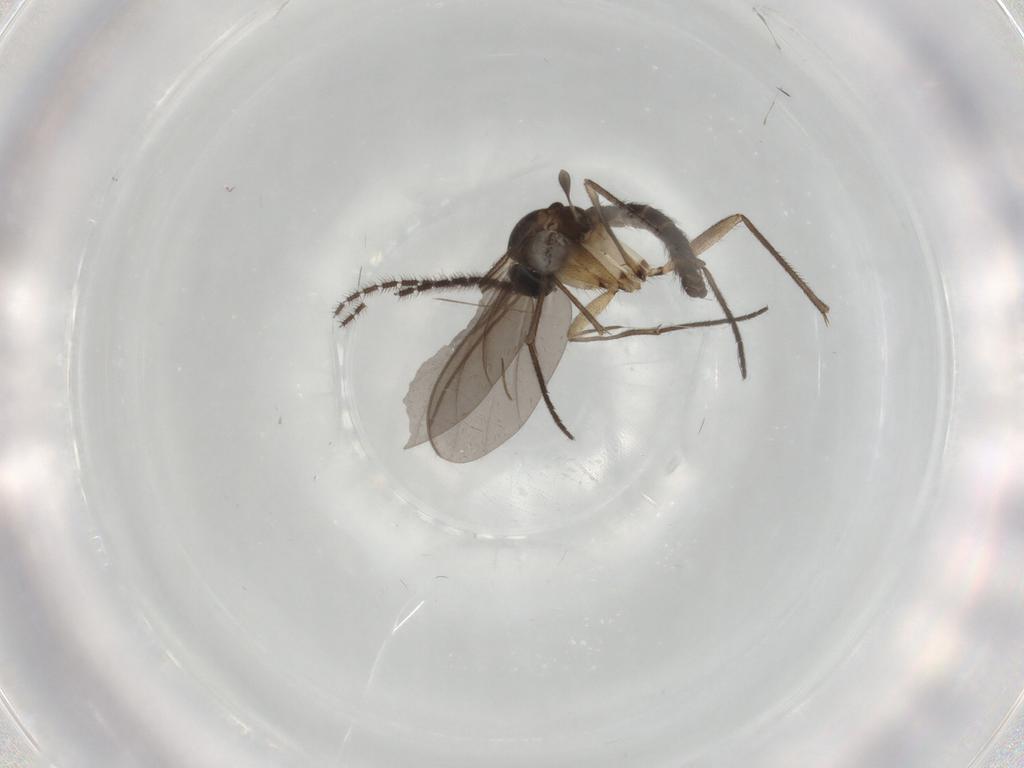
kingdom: Animalia
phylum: Arthropoda
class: Insecta
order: Diptera
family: Sciaridae
